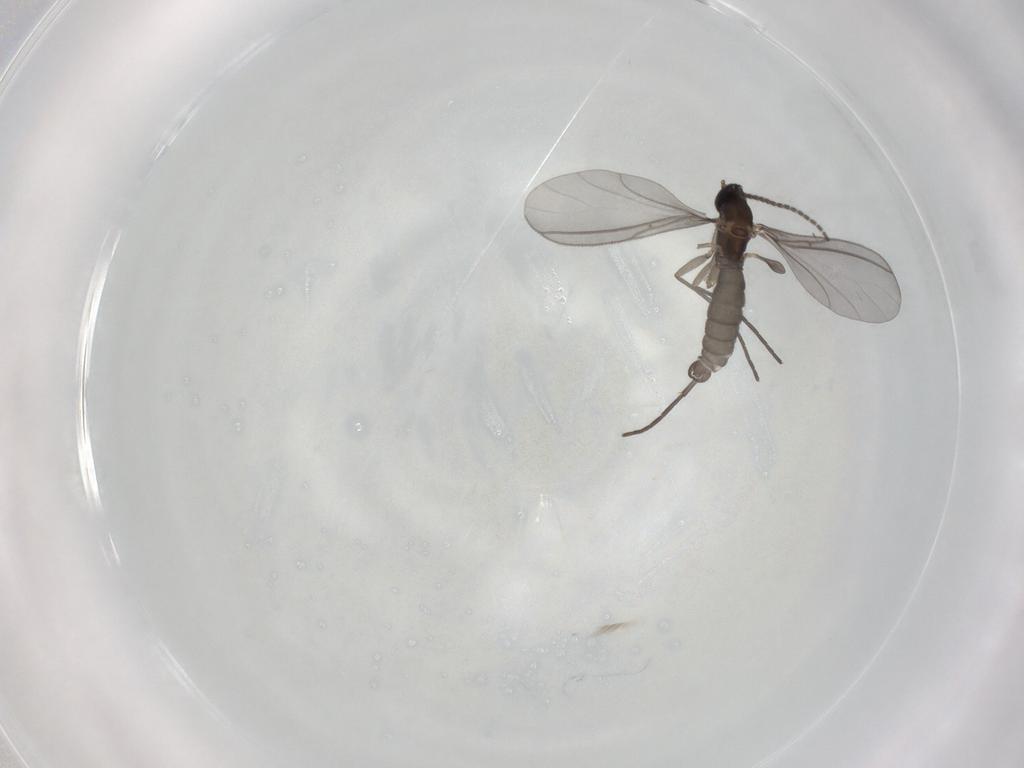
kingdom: Animalia
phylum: Arthropoda
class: Insecta
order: Diptera
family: Sciaridae
